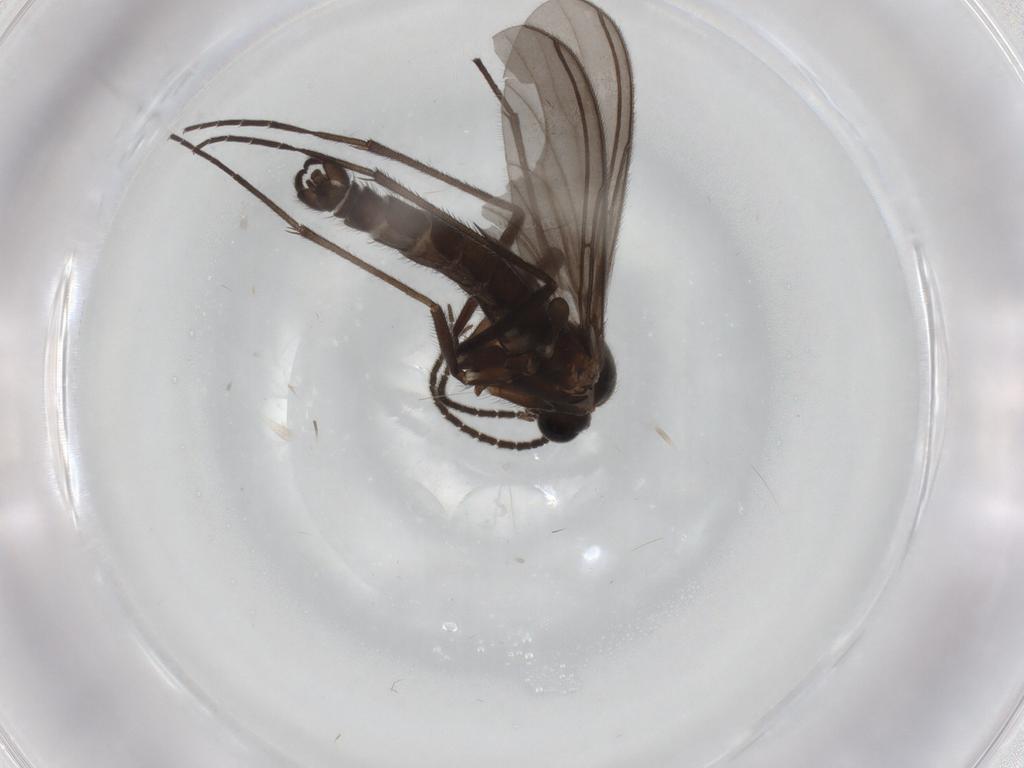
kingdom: Animalia
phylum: Arthropoda
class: Insecta
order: Diptera
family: Sciaridae
